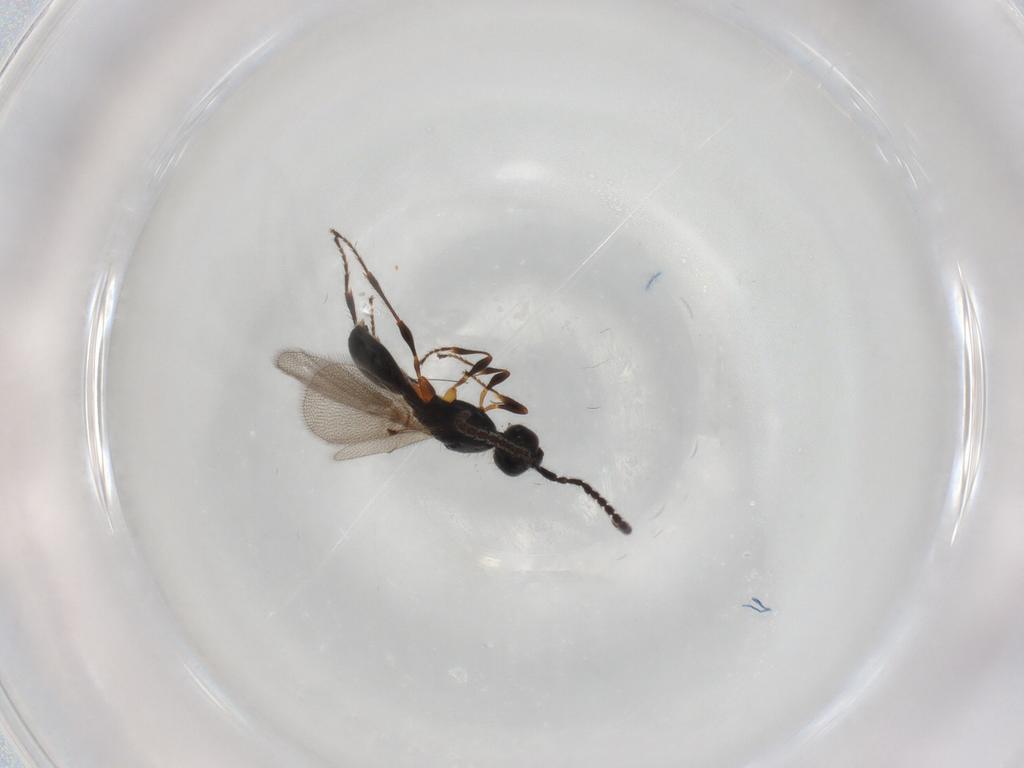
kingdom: Animalia
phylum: Arthropoda
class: Insecta
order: Hymenoptera
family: Diapriidae
